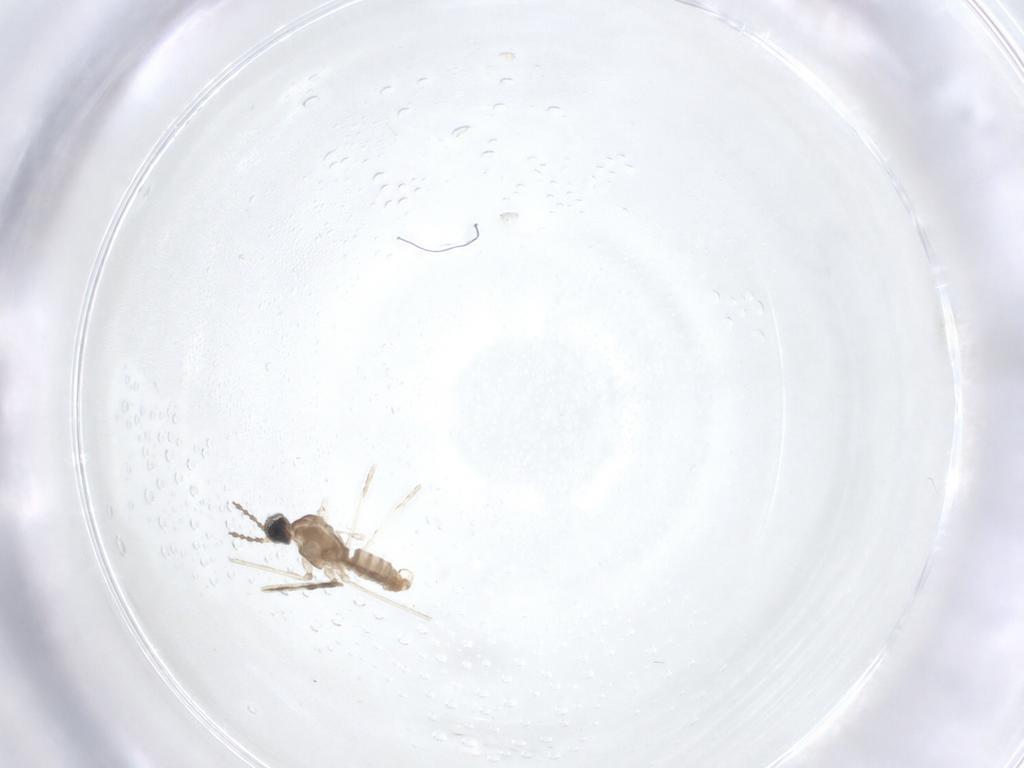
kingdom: Animalia
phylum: Arthropoda
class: Insecta
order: Diptera
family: Cecidomyiidae
